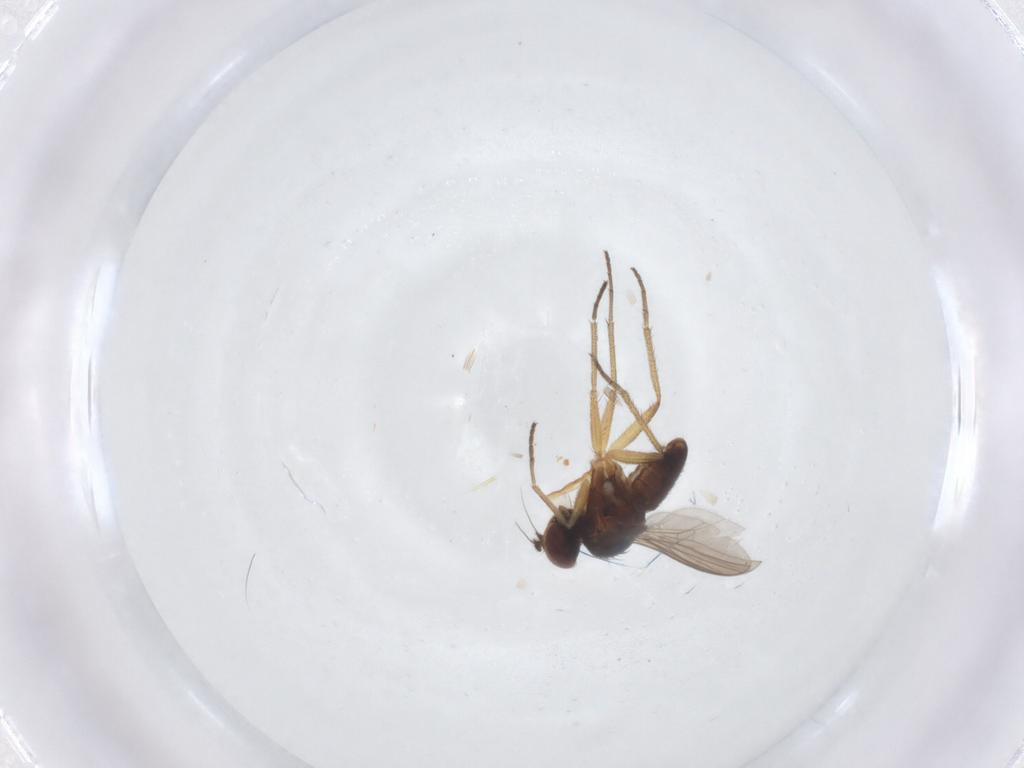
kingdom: Animalia
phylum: Arthropoda
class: Insecta
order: Diptera
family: Dolichopodidae
